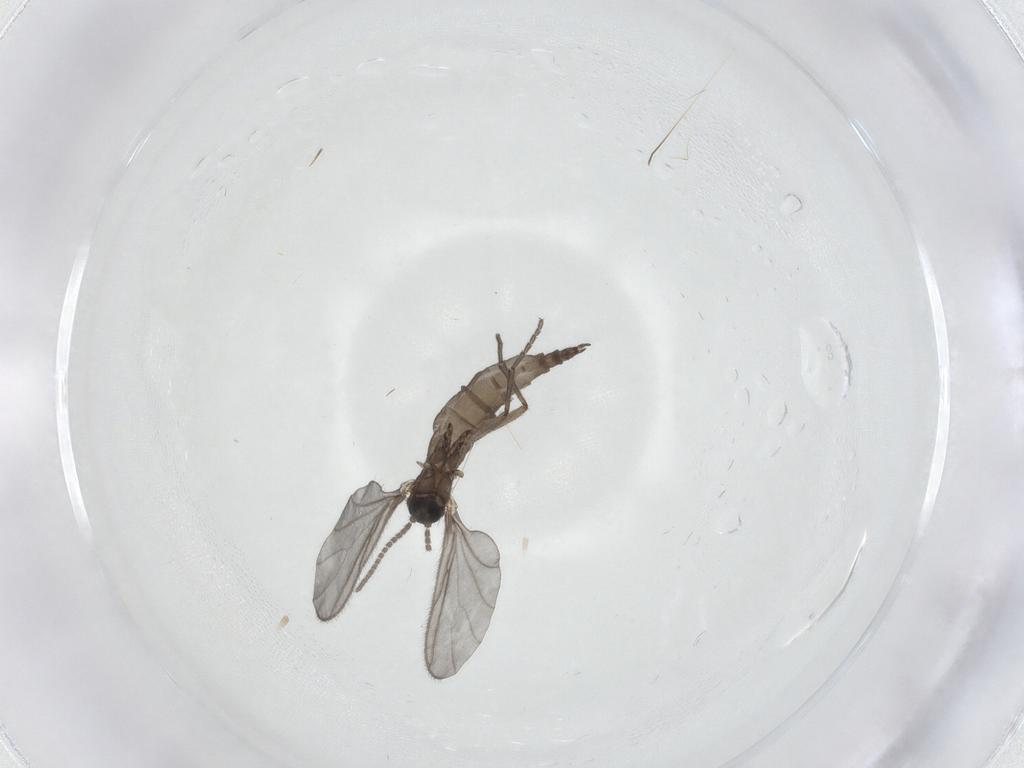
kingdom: Animalia
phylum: Arthropoda
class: Insecta
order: Diptera
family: Sciaridae
